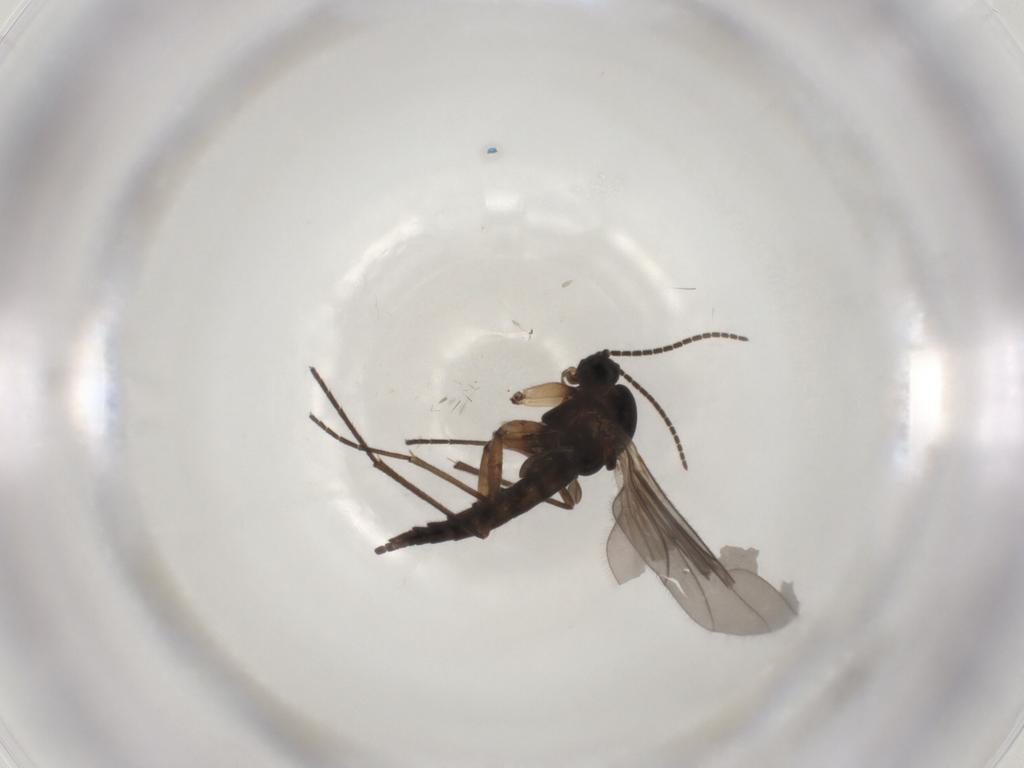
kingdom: Animalia
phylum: Arthropoda
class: Insecta
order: Diptera
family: Sciaridae
